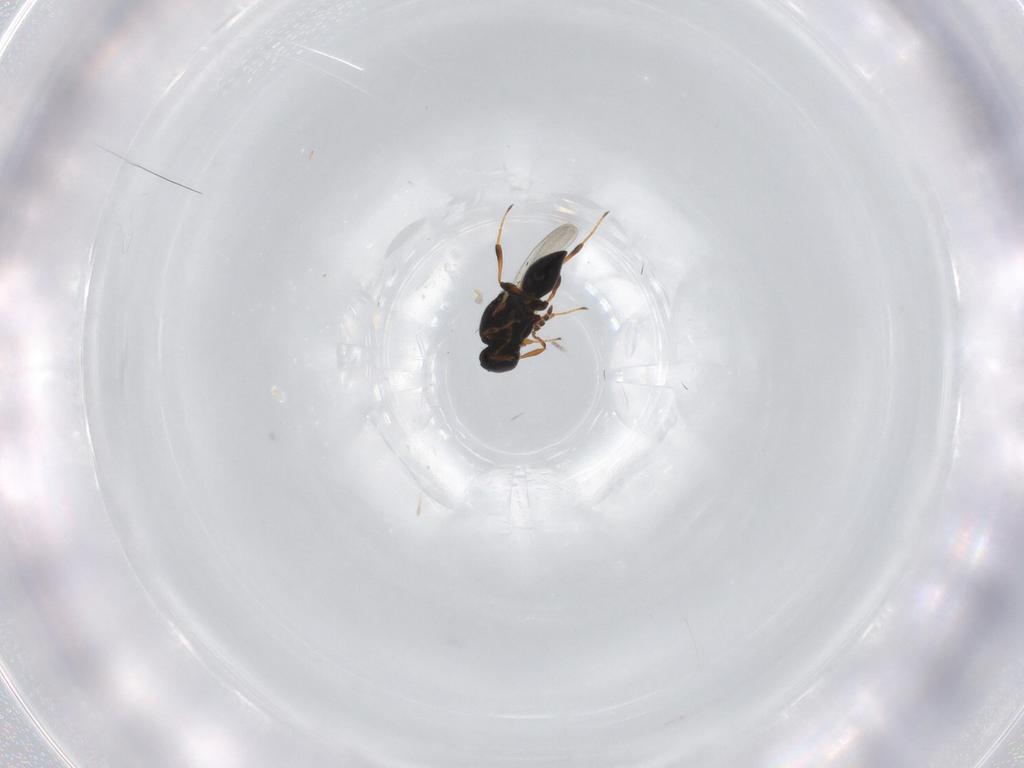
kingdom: Animalia
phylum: Arthropoda
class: Insecta
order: Hymenoptera
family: Platygastridae
